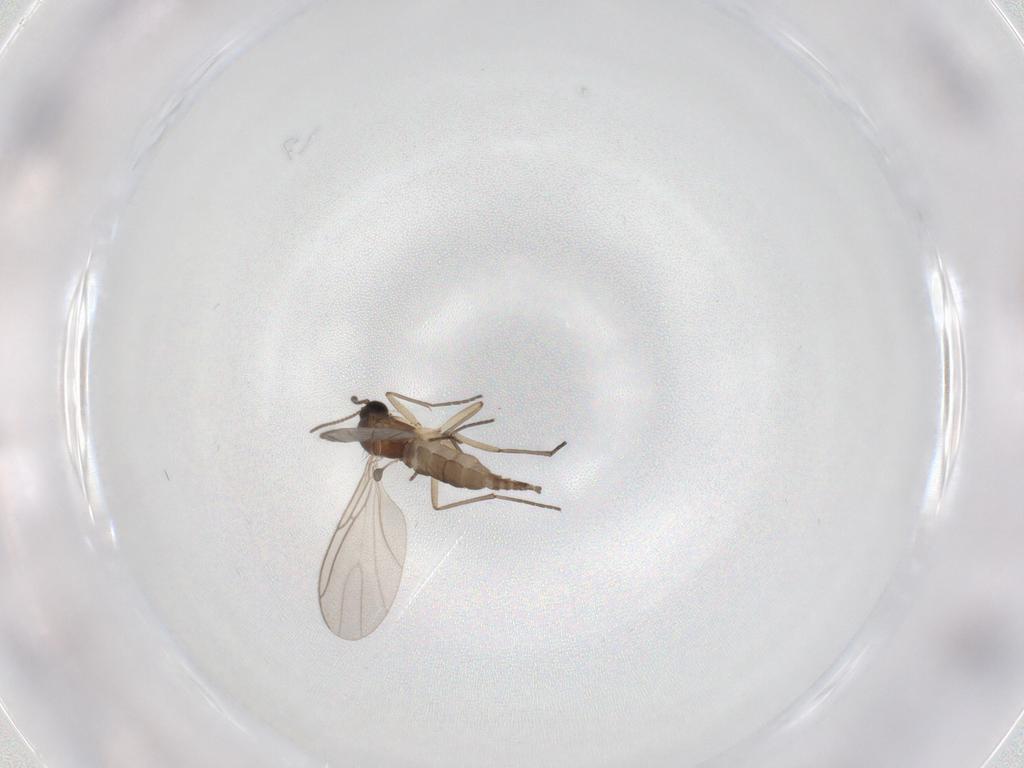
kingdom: Animalia
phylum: Arthropoda
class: Insecta
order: Diptera
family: Sciaridae
